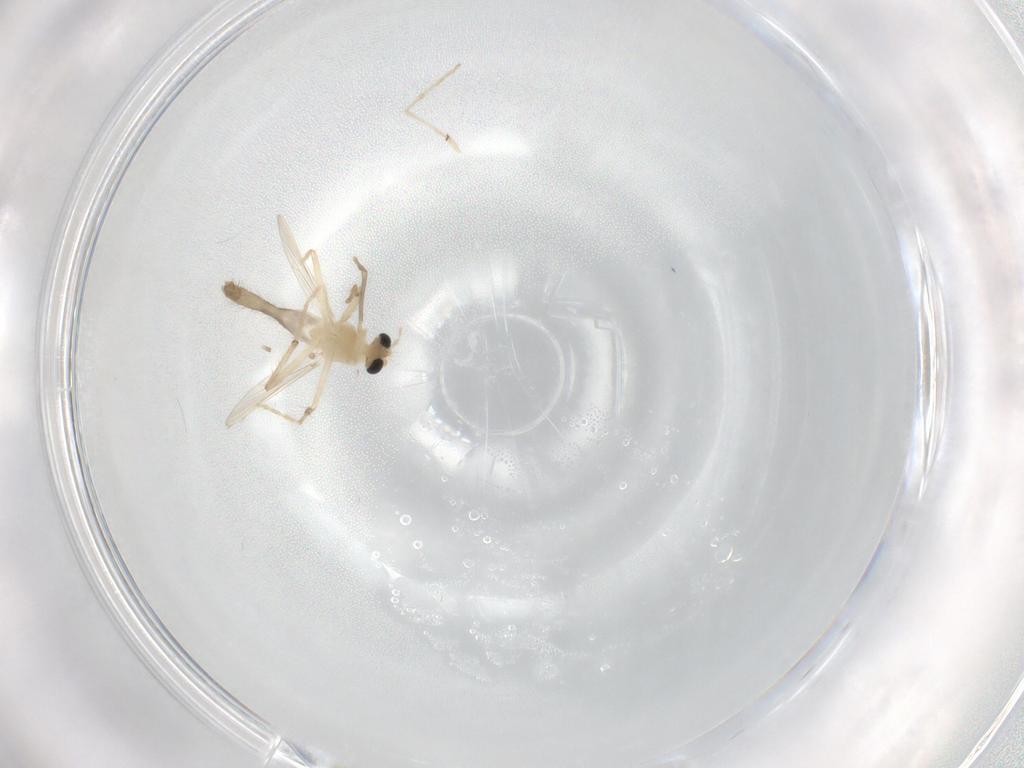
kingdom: Animalia
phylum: Arthropoda
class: Insecta
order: Diptera
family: Chironomidae
